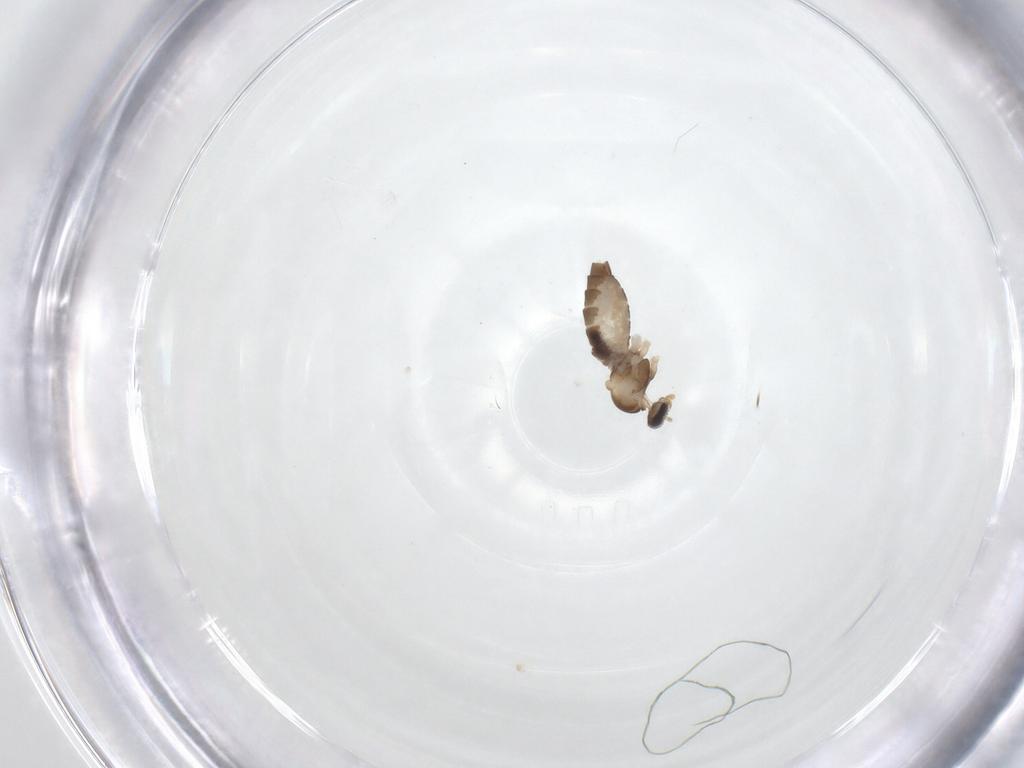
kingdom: Animalia
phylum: Arthropoda
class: Insecta
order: Diptera
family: Cecidomyiidae
